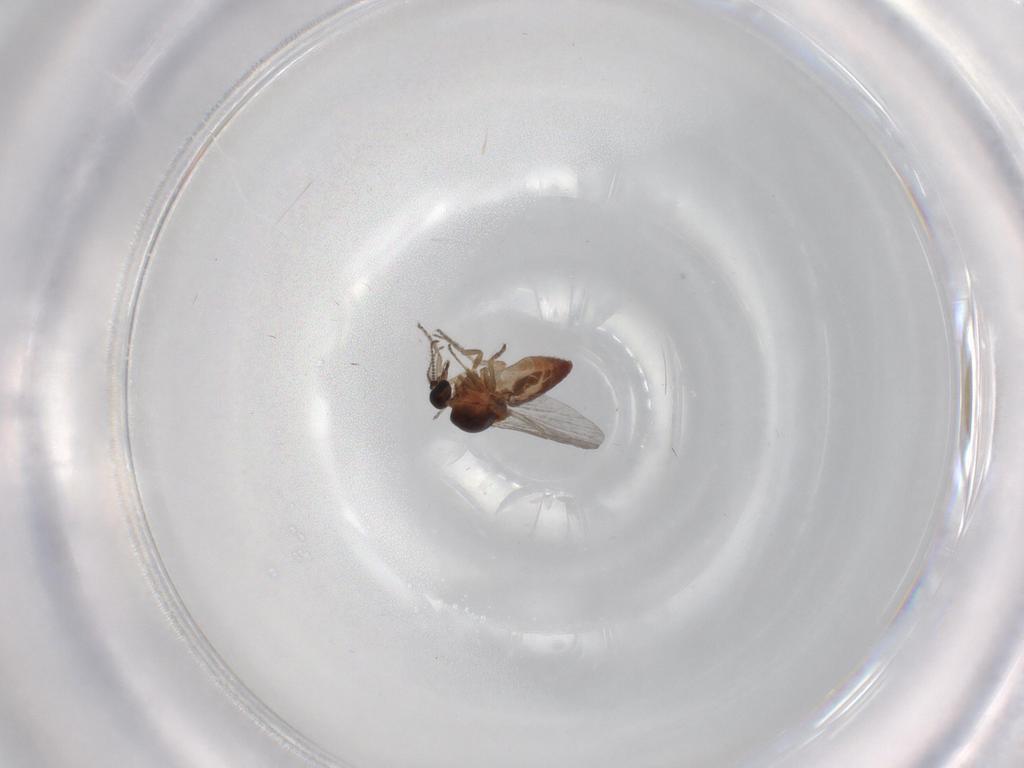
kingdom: Animalia
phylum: Arthropoda
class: Insecta
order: Diptera
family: Ceratopogonidae
